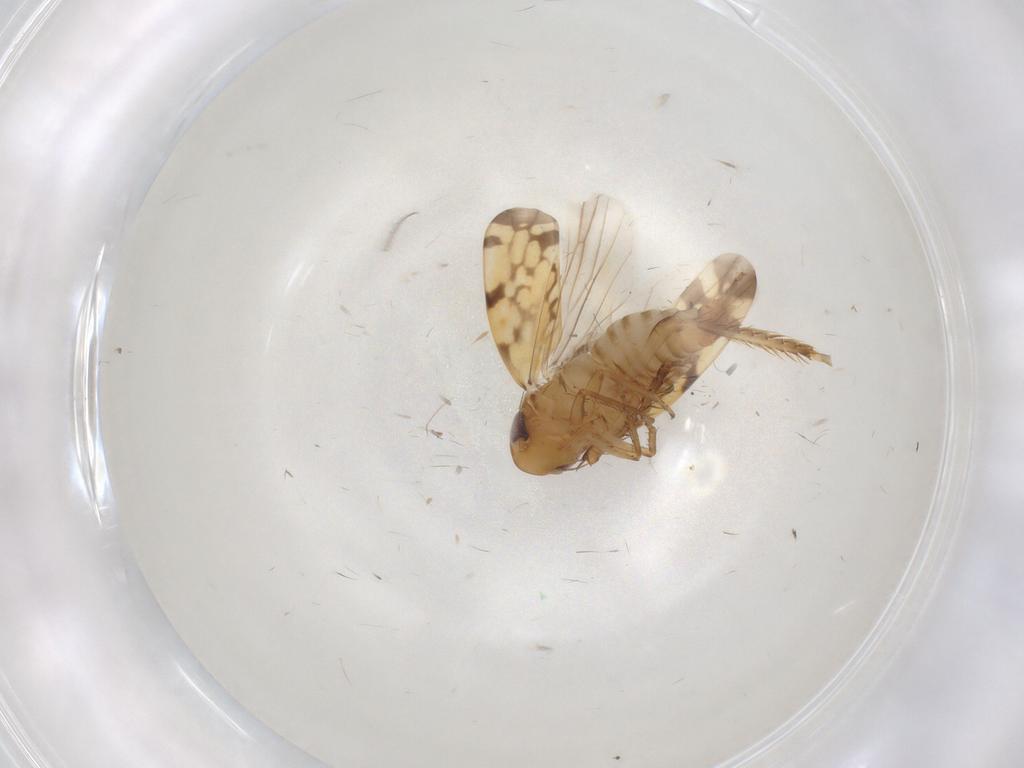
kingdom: Animalia
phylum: Arthropoda
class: Insecta
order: Hemiptera
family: Cicadellidae
